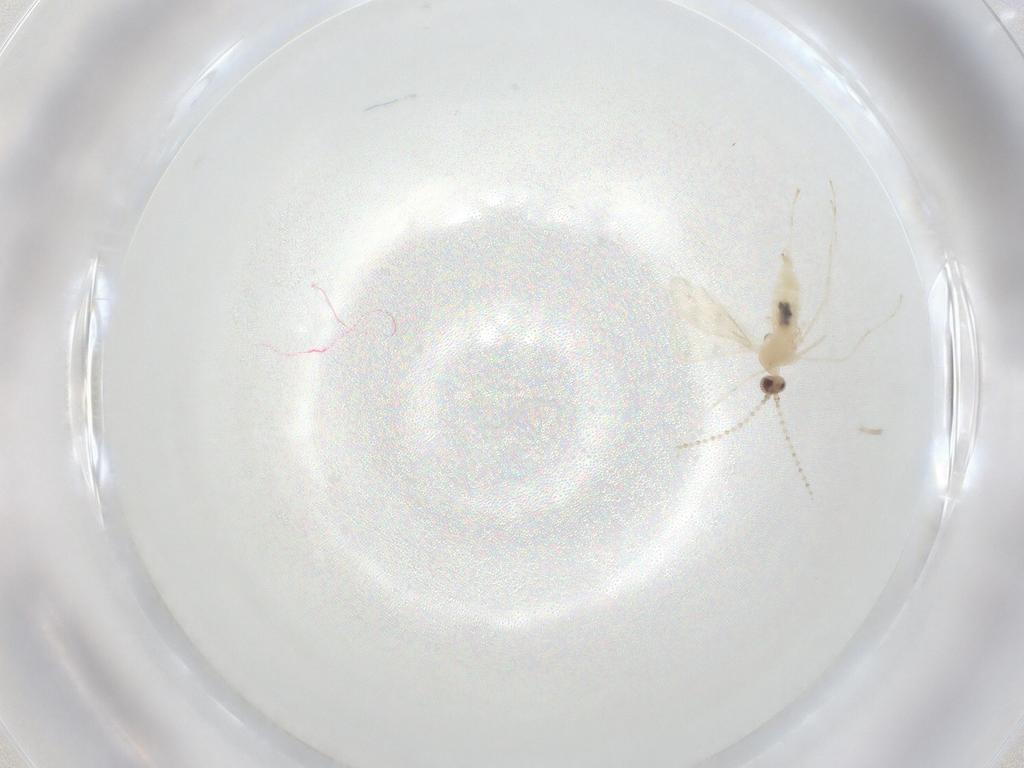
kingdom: Animalia
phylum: Arthropoda
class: Insecta
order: Diptera
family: Cecidomyiidae
